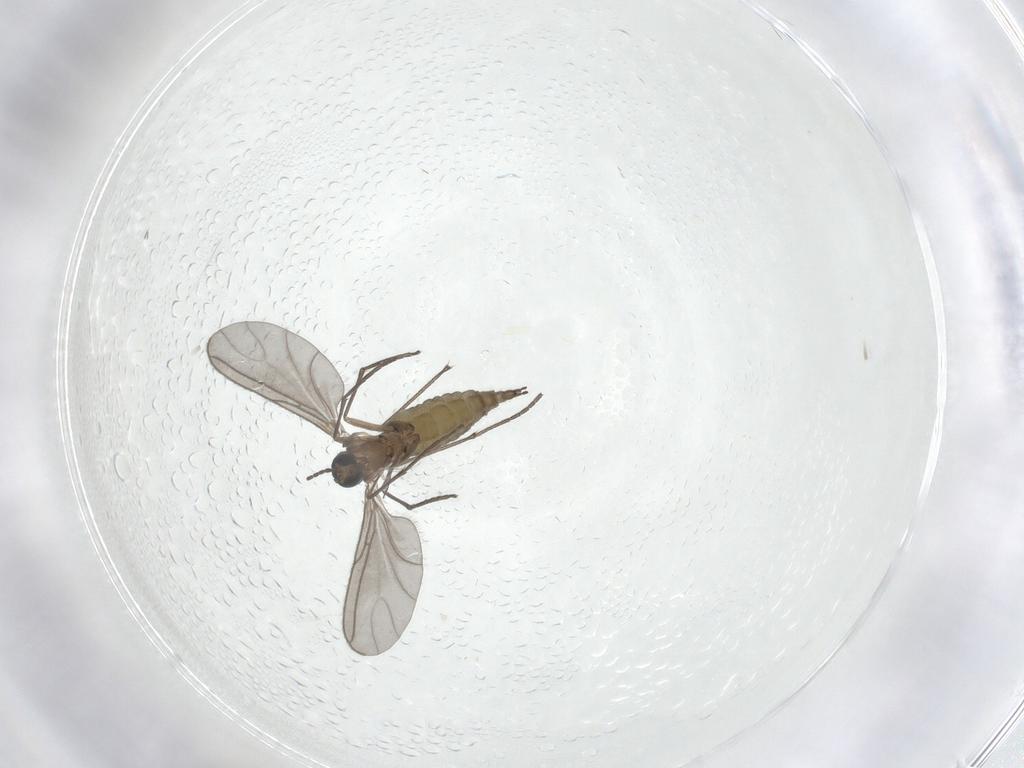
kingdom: Animalia
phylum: Arthropoda
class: Insecta
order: Diptera
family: Sciaridae
